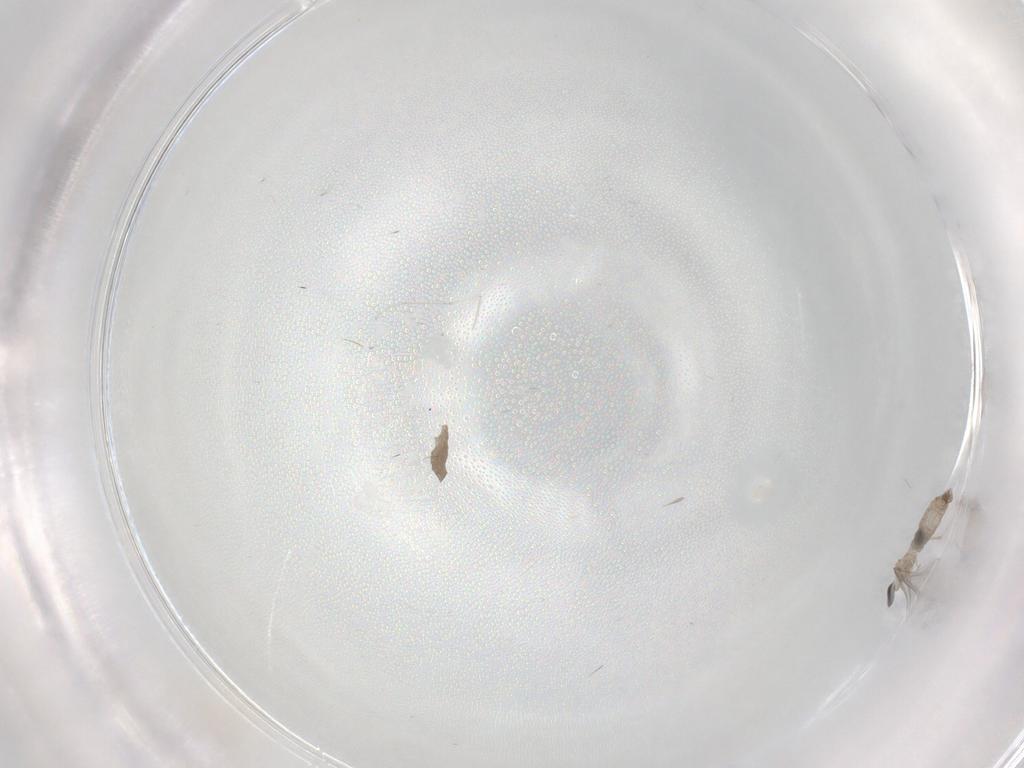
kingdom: Animalia
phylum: Arthropoda
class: Insecta
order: Diptera
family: Cecidomyiidae
